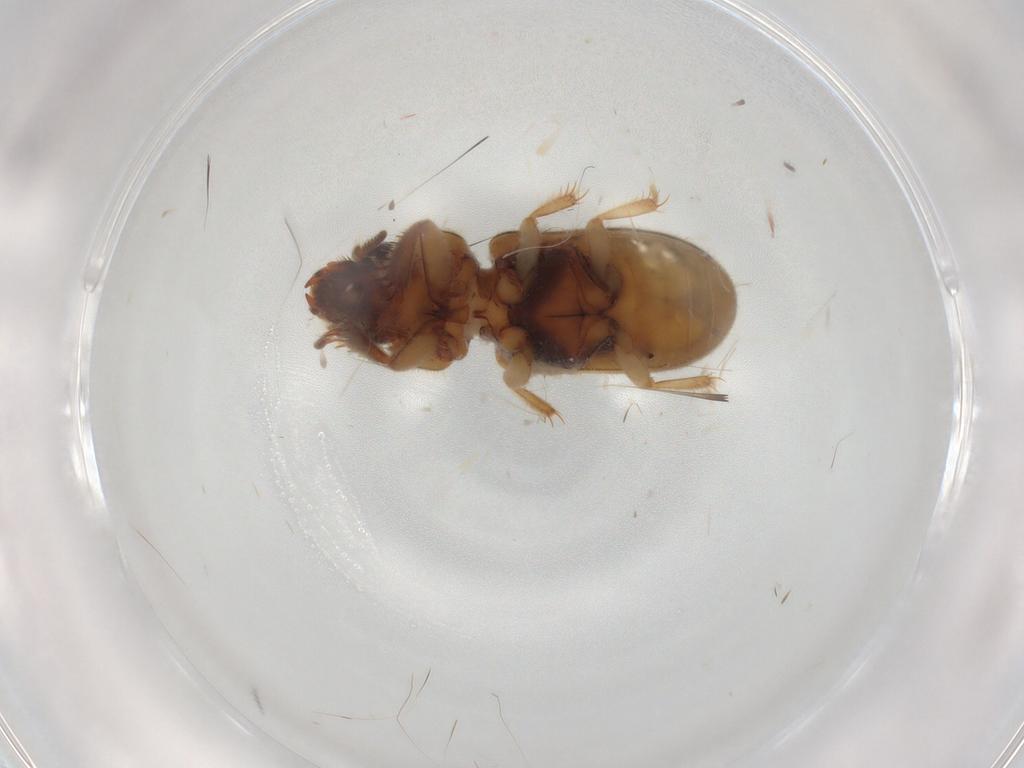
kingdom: Animalia
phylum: Arthropoda
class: Insecta
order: Coleoptera
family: Heteroceridae
